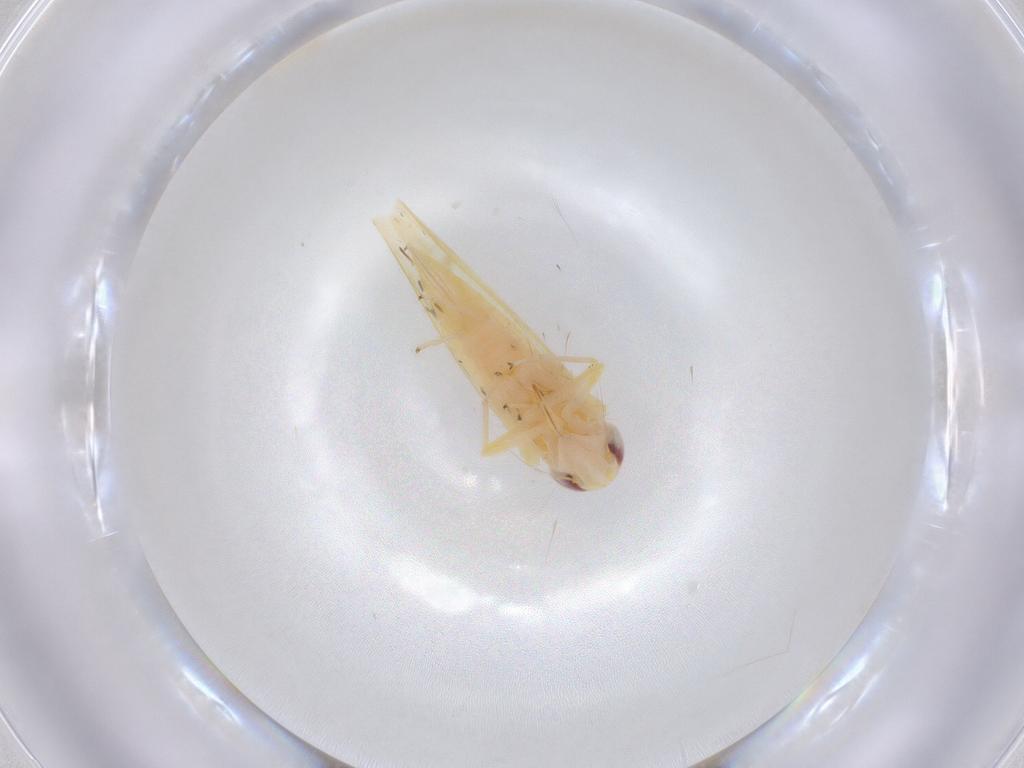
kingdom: Animalia
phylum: Arthropoda
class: Insecta
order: Hemiptera
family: Cicadellidae
